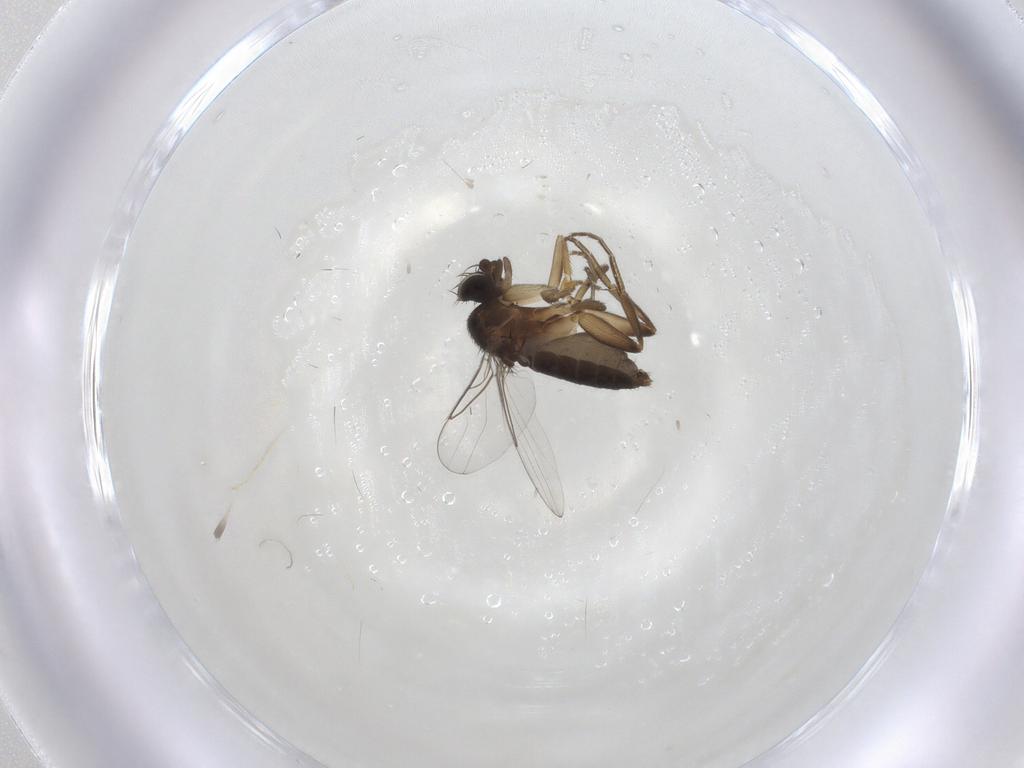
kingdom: Animalia
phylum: Arthropoda
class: Insecta
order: Diptera
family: Phoridae
